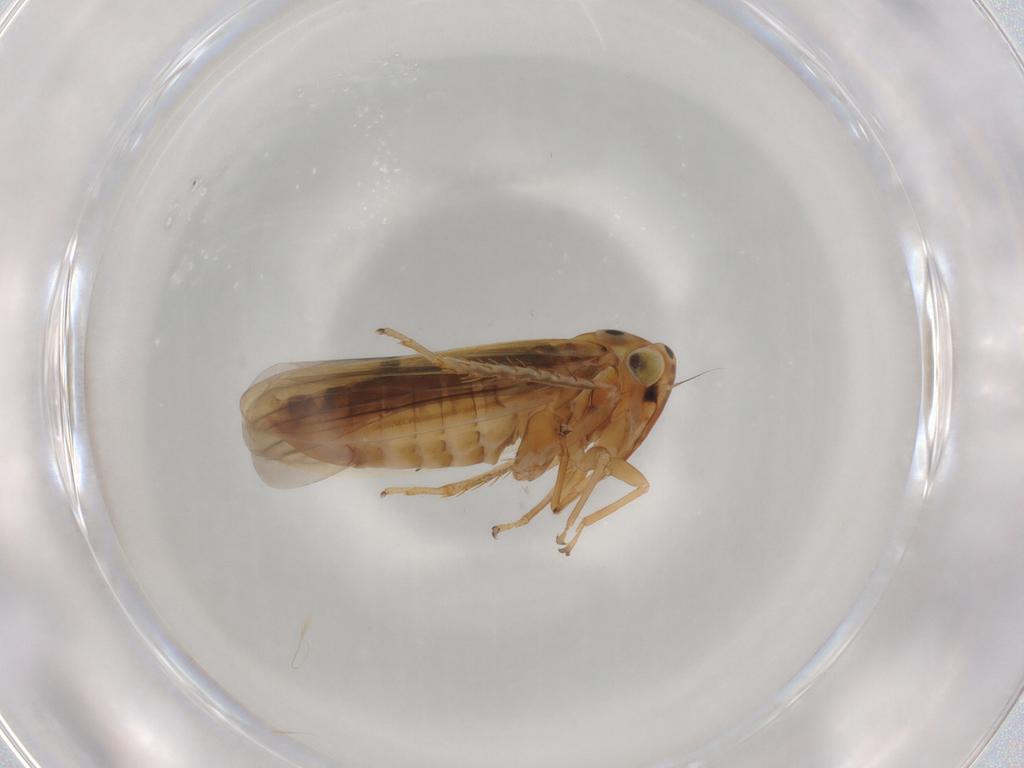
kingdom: Animalia
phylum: Arthropoda
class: Insecta
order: Hemiptera
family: Cicadellidae
